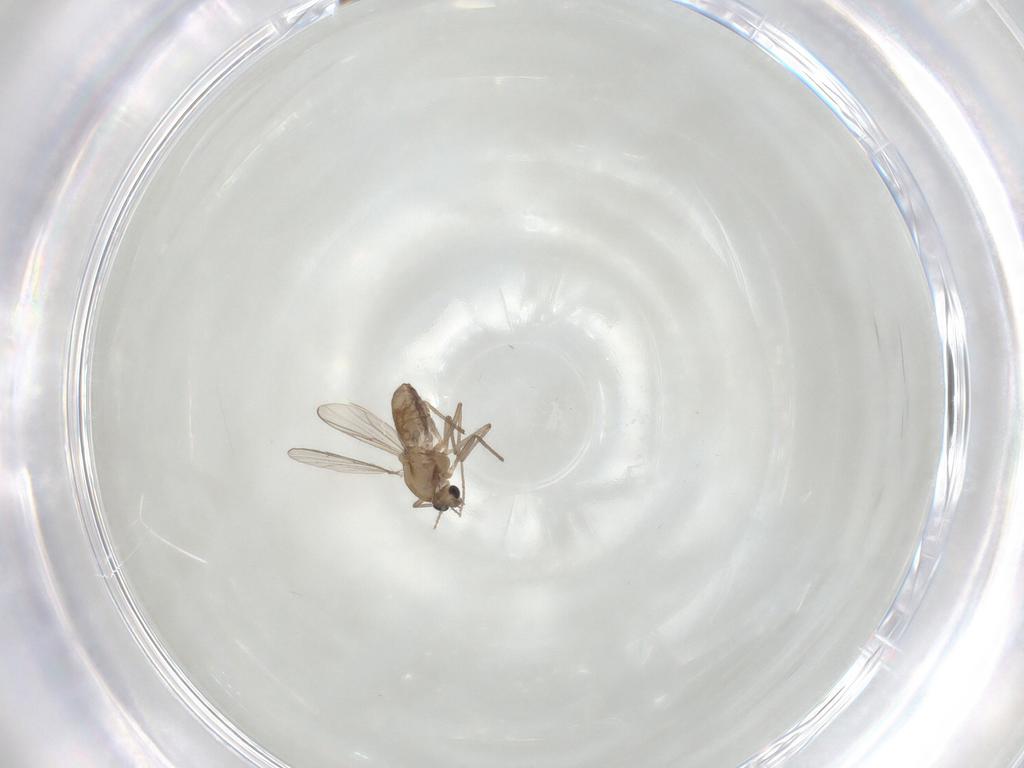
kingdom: Animalia
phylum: Arthropoda
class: Insecta
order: Diptera
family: Chironomidae
